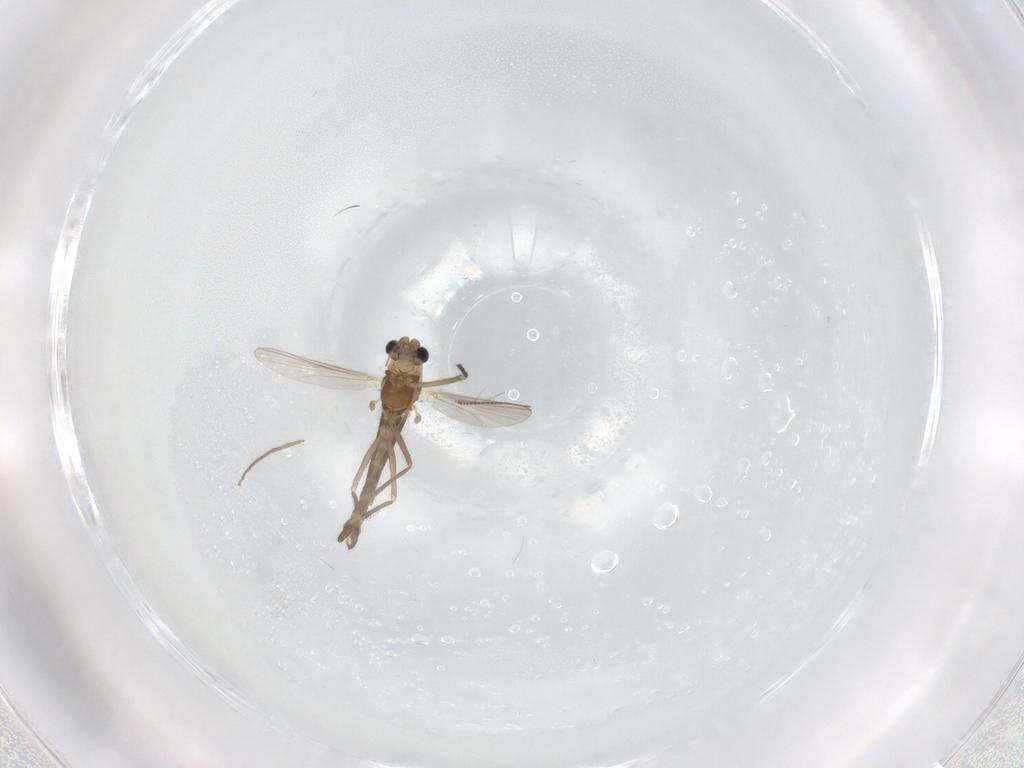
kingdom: Animalia
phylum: Arthropoda
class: Insecta
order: Diptera
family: Chironomidae
